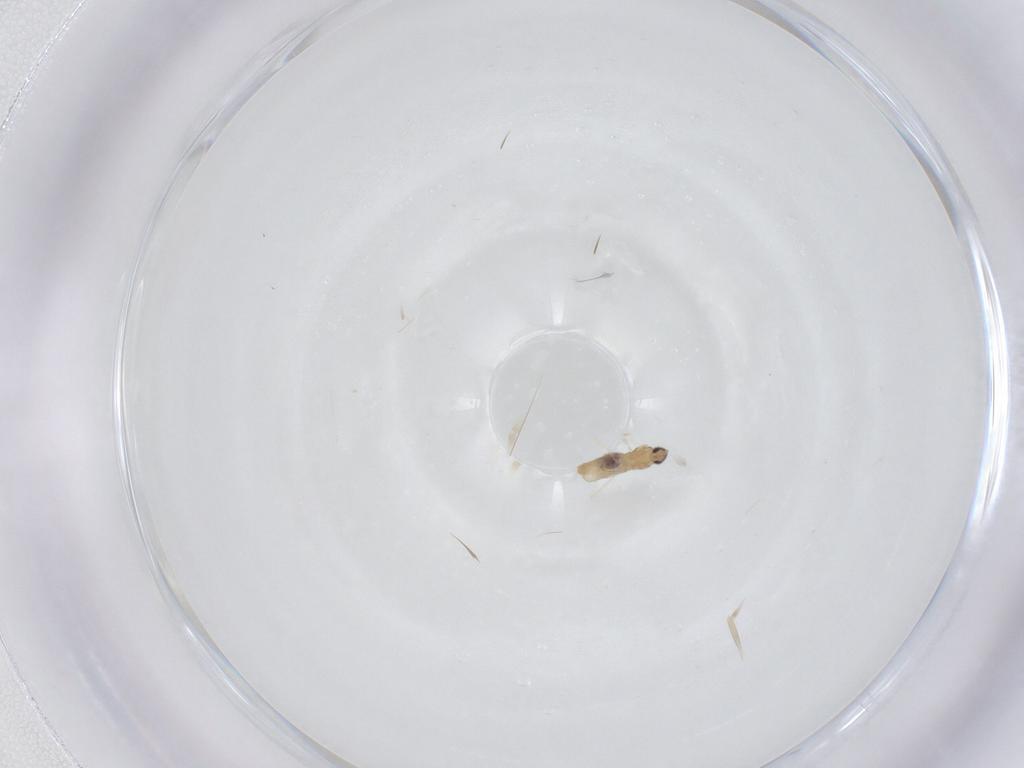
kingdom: Animalia
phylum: Arthropoda
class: Insecta
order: Diptera
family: Cecidomyiidae
